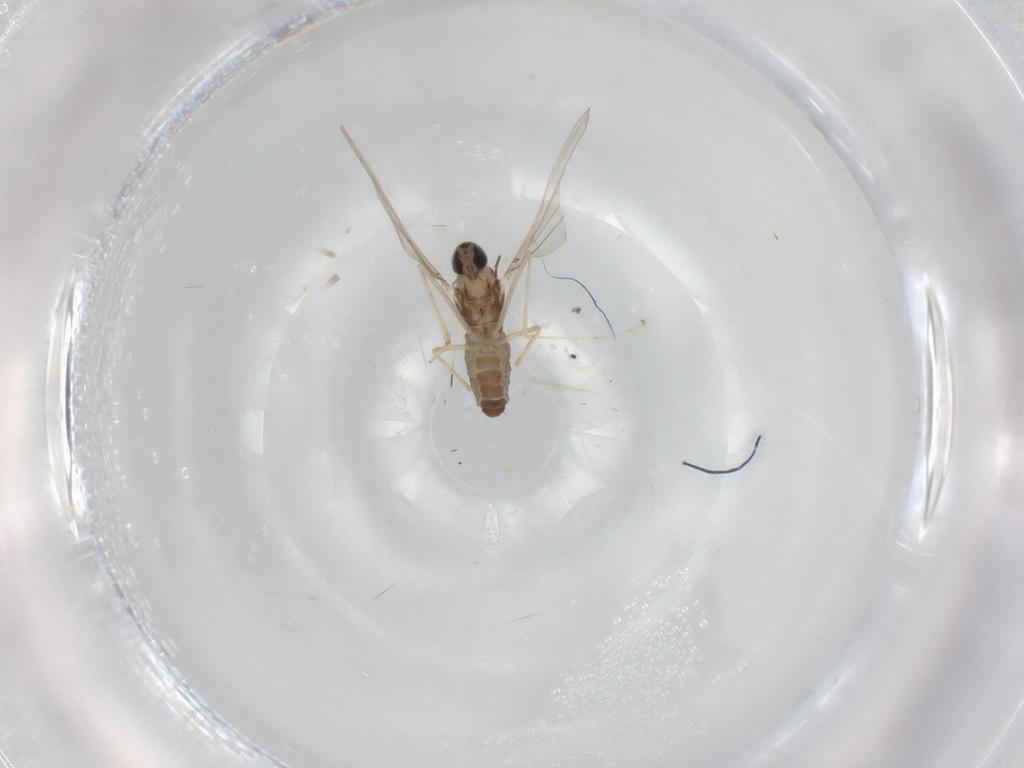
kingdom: Animalia
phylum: Arthropoda
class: Insecta
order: Diptera
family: Cecidomyiidae
